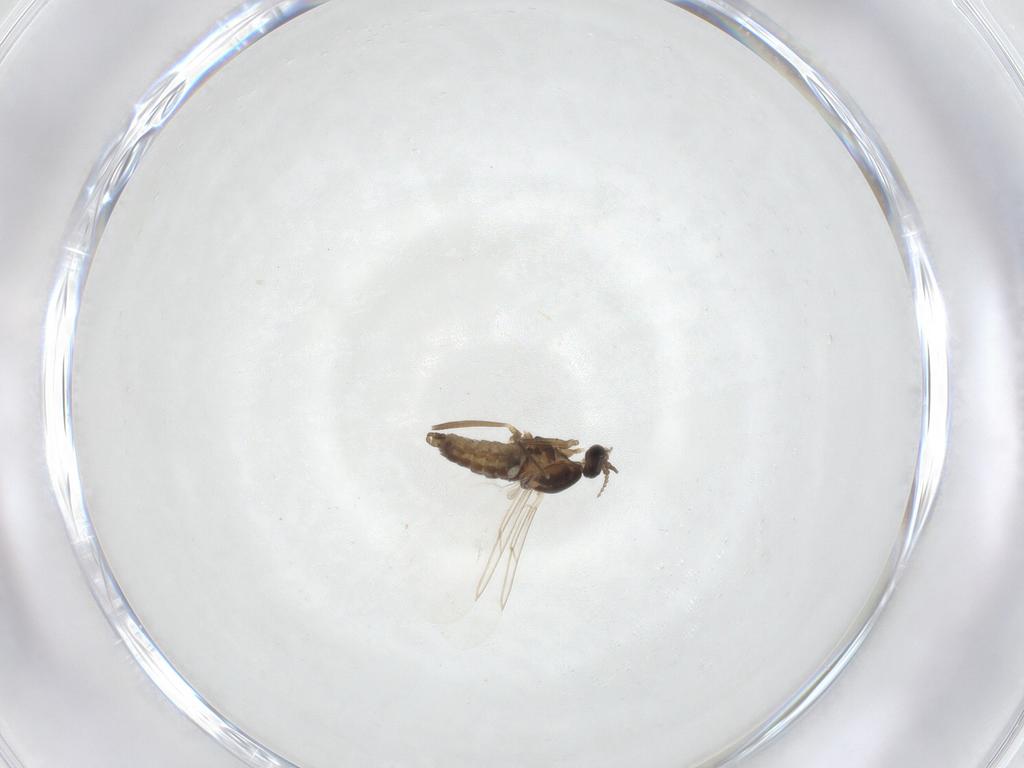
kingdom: Animalia
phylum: Arthropoda
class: Insecta
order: Diptera
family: Cecidomyiidae
